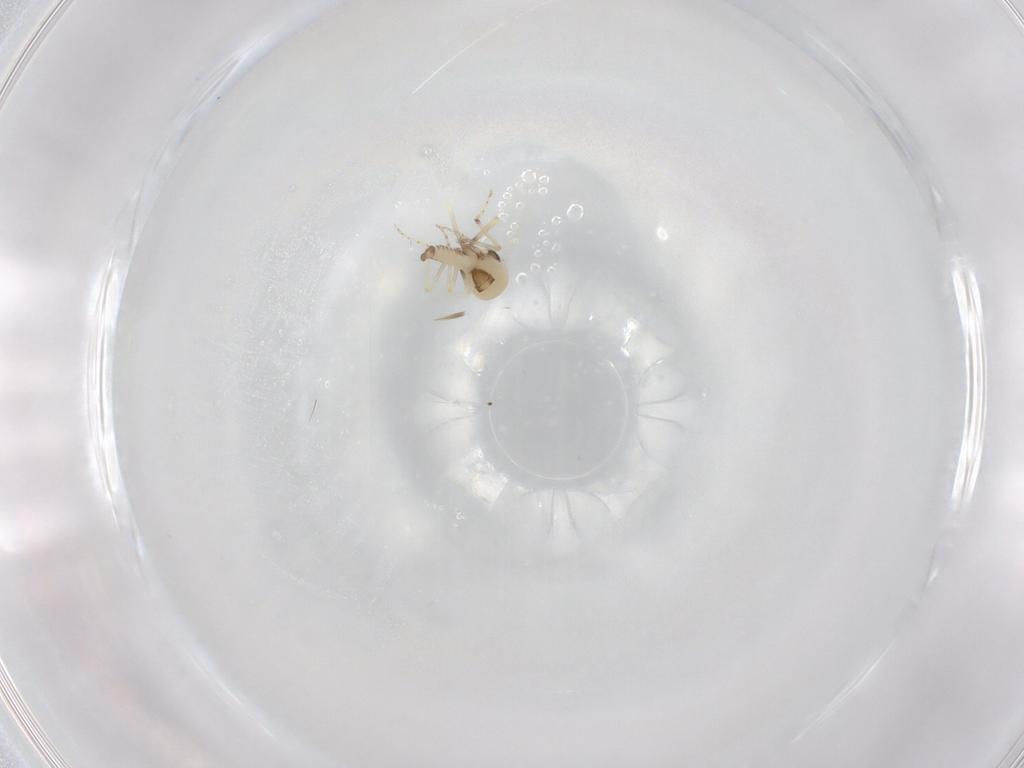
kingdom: Animalia
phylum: Arthropoda
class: Insecta
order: Diptera
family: Ceratopogonidae
